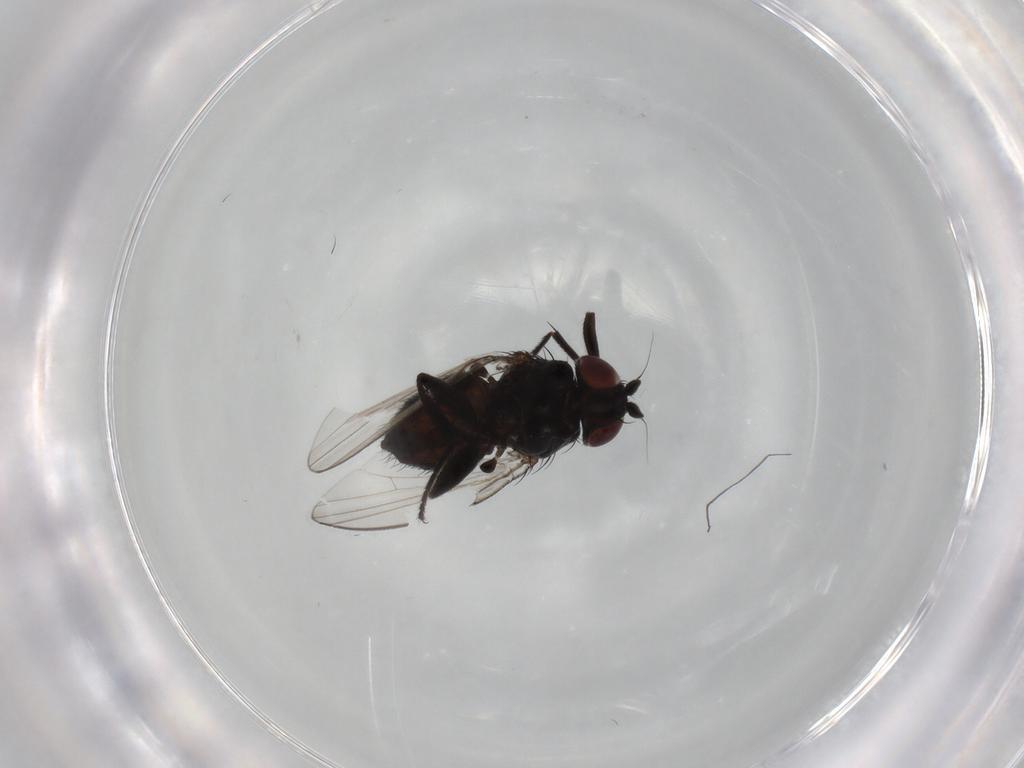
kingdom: Animalia
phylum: Arthropoda
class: Insecta
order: Diptera
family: Milichiidae
